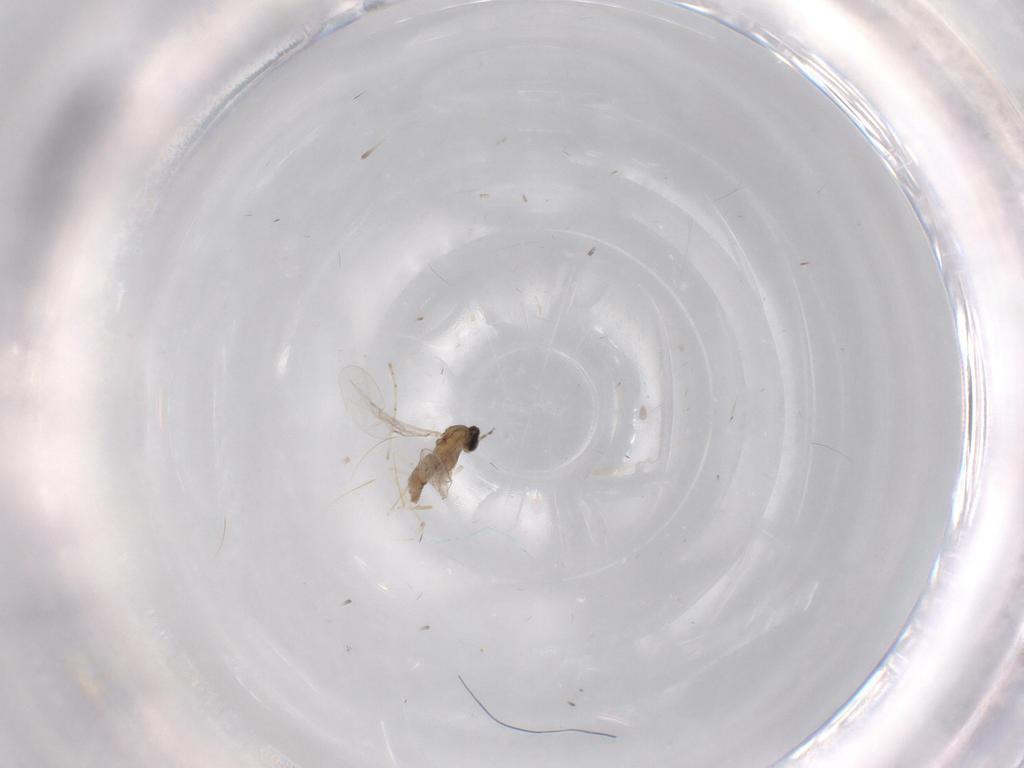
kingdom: Animalia
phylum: Arthropoda
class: Insecta
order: Diptera
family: Cecidomyiidae
